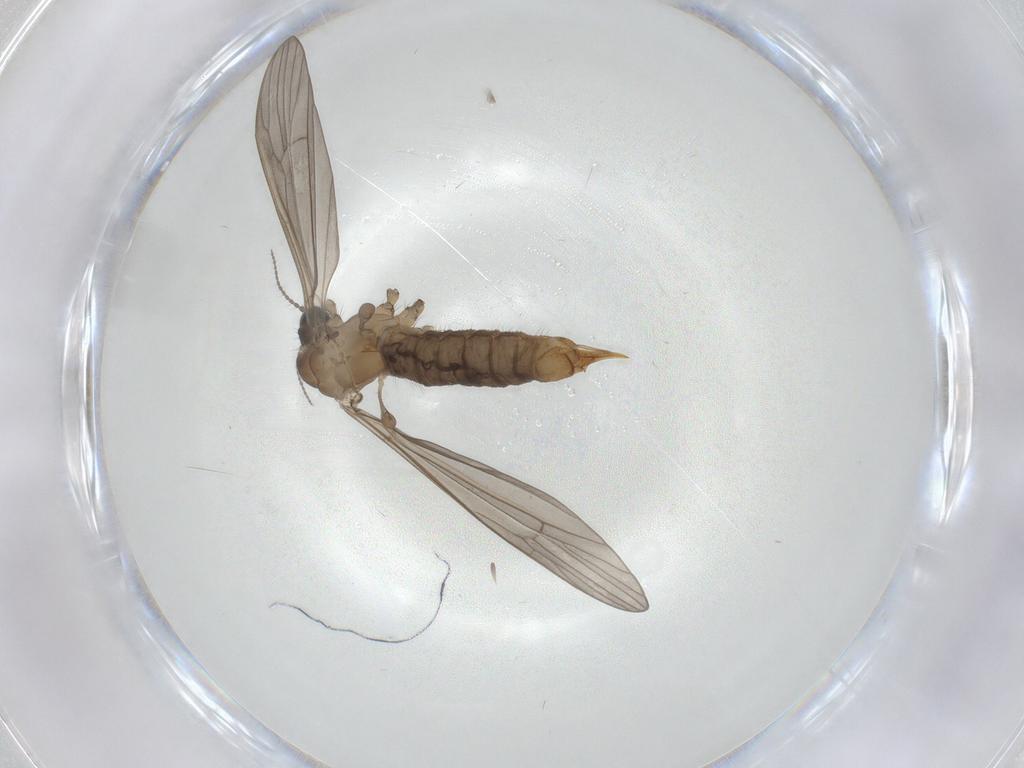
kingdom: Animalia
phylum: Arthropoda
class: Insecta
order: Diptera
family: Limoniidae
